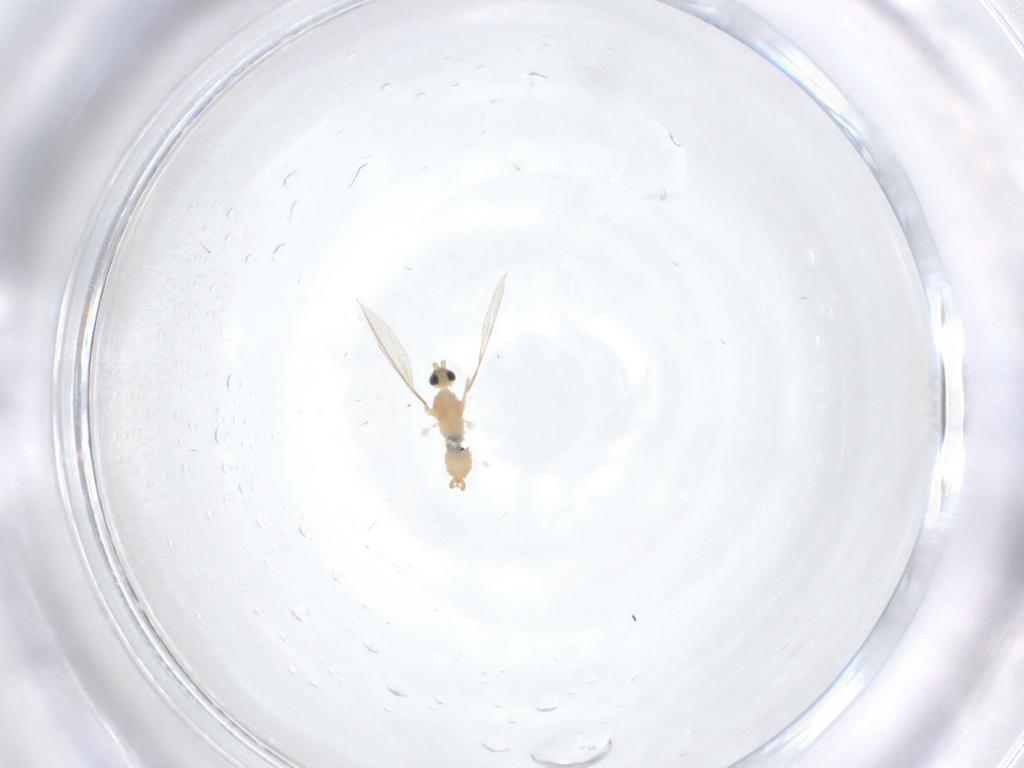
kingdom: Animalia
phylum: Arthropoda
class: Insecta
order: Diptera
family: Cecidomyiidae
